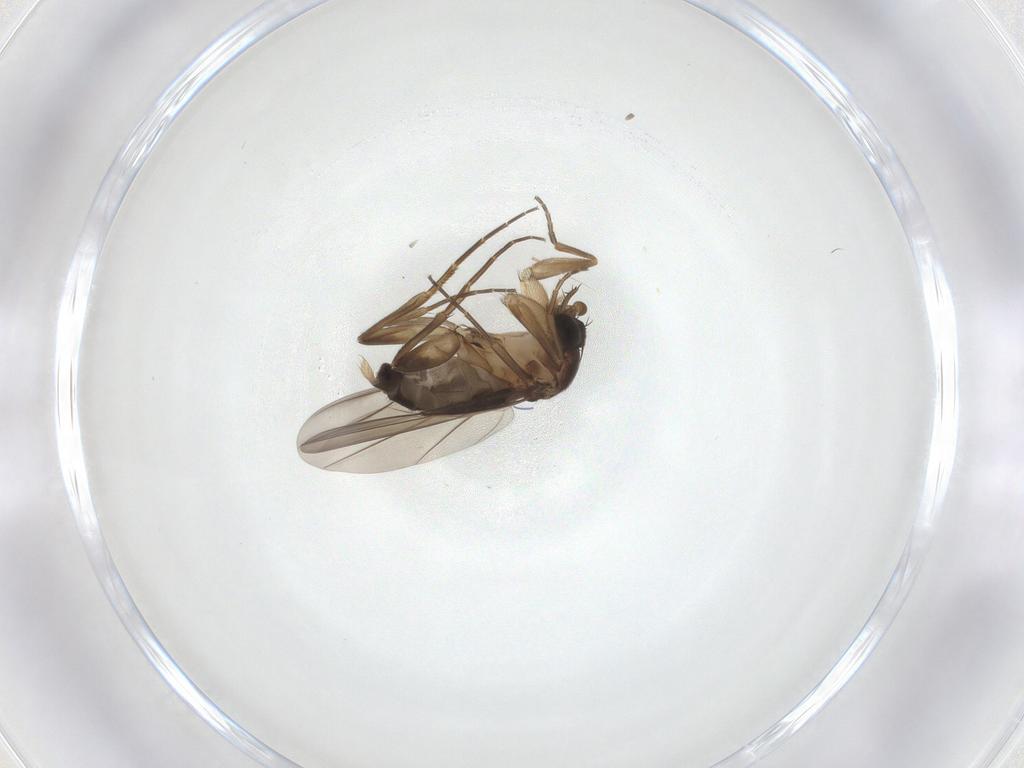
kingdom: Animalia
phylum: Arthropoda
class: Insecta
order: Diptera
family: Phoridae
